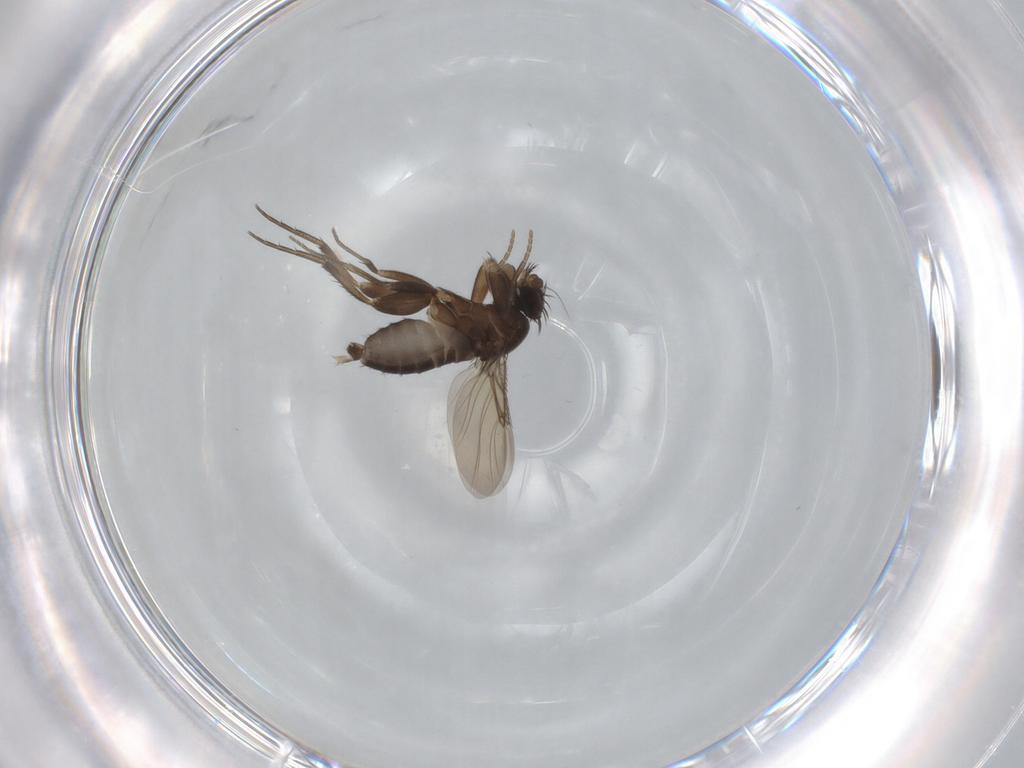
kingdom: Animalia
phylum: Arthropoda
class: Insecta
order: Diptera
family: Phoridae
